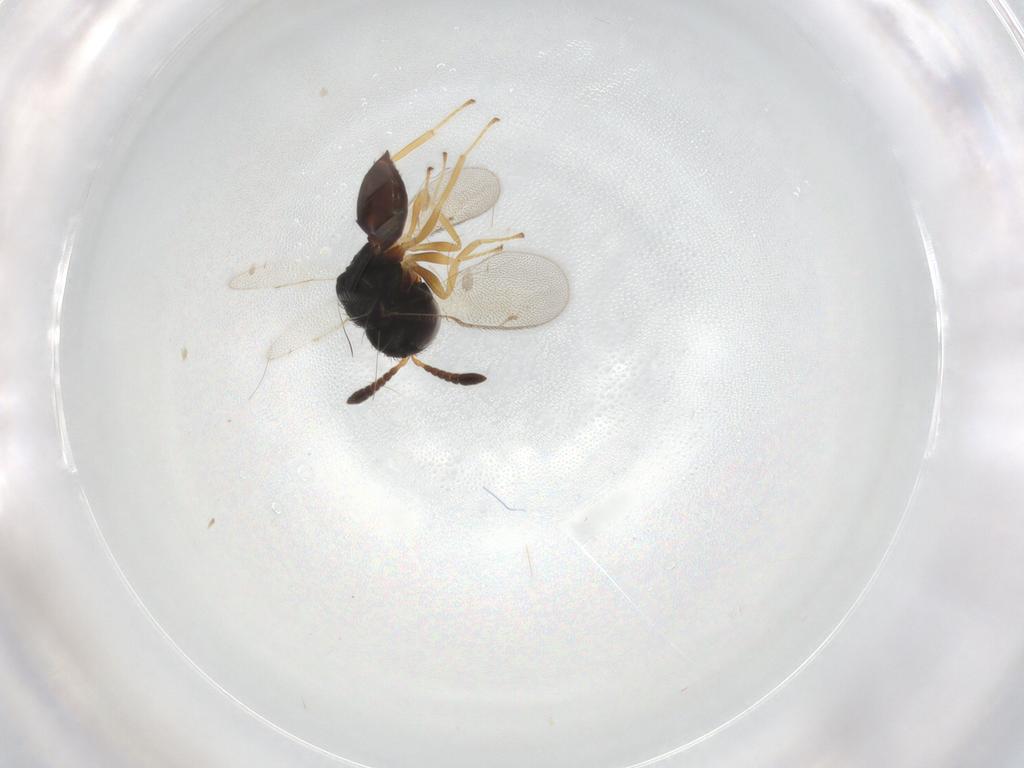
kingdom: Animalia
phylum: Arthropoda
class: Insecta
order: Hymenoptera
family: Pteromalidae
